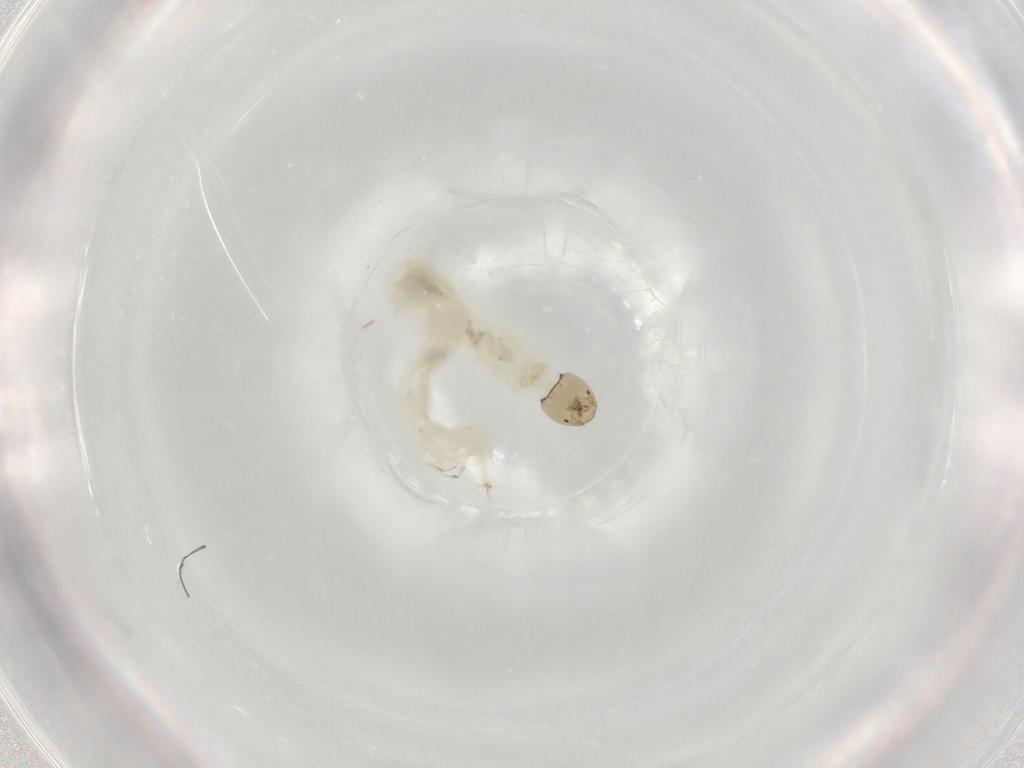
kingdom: Animalia
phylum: Arthropoda
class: Insecta
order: Diptera
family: Chironomidae
